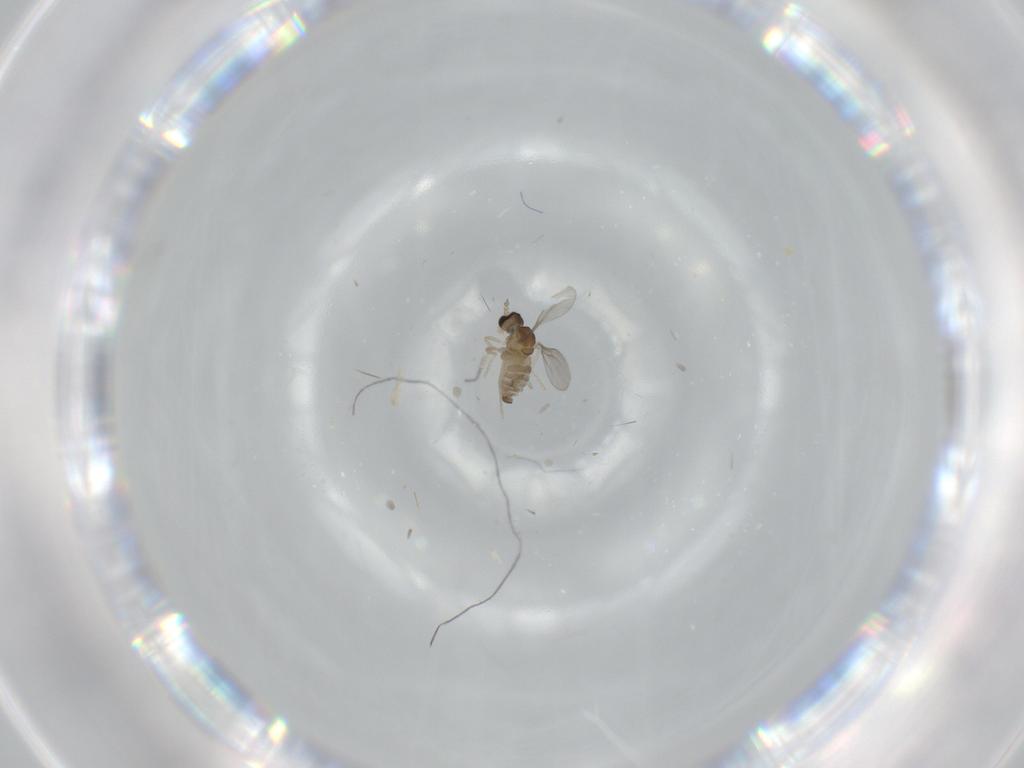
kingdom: Animalia
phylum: Arthropoda
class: Insecta
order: Diptera
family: Cecidomyiidae
